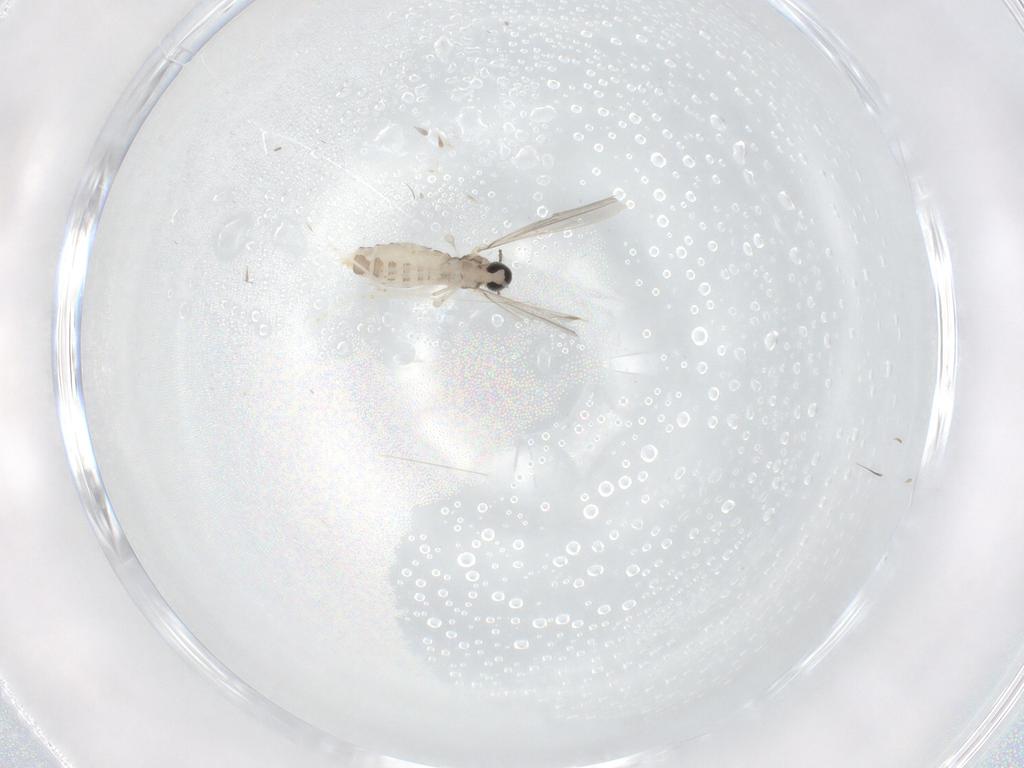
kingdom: Animalia
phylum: Arthropoda
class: Insecta
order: Diptera
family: Cecidomyiidae
